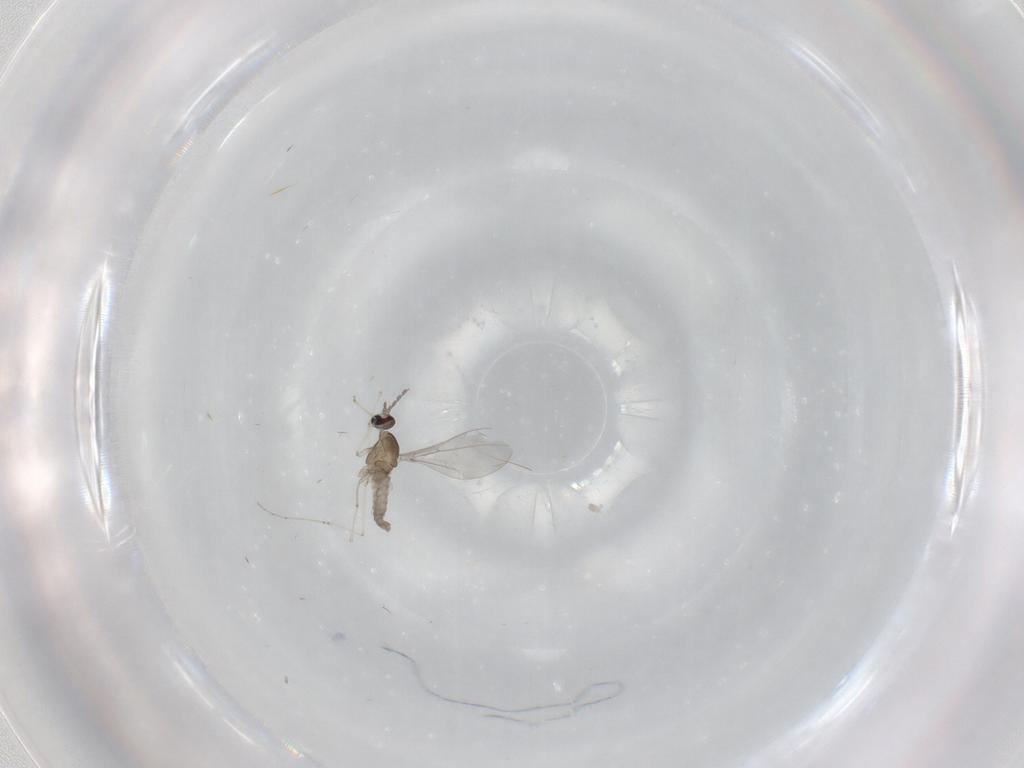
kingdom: Animalia
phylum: Arthropoda
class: Insecta
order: Diptera
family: Cecidomyiidae
